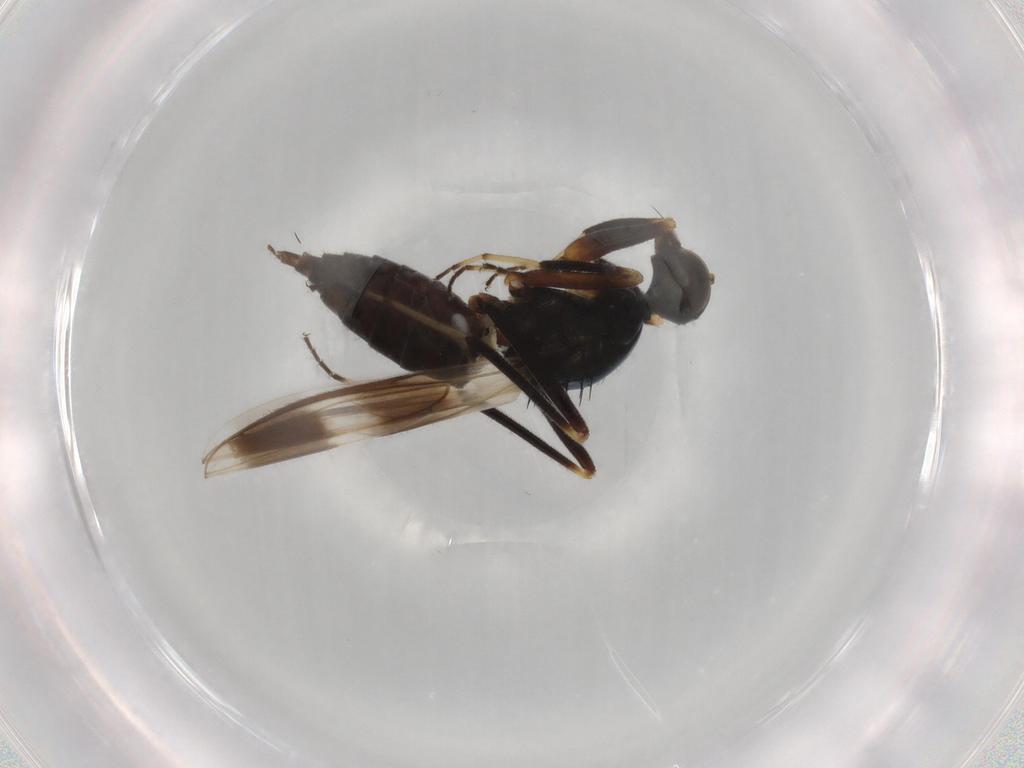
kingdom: Animalia
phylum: Arthropoda
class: Insecta
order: Diptera
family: Hybotidae
